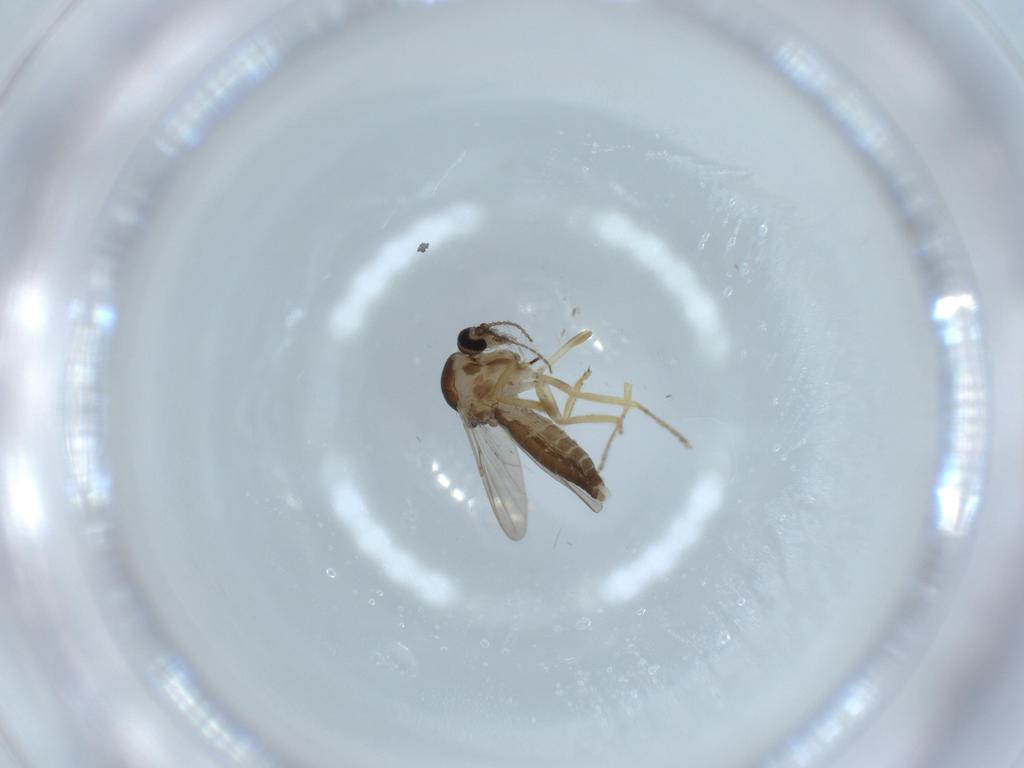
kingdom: Animalia
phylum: Arthropoda
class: Insecta
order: Diptera
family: Ceratopogonidae
